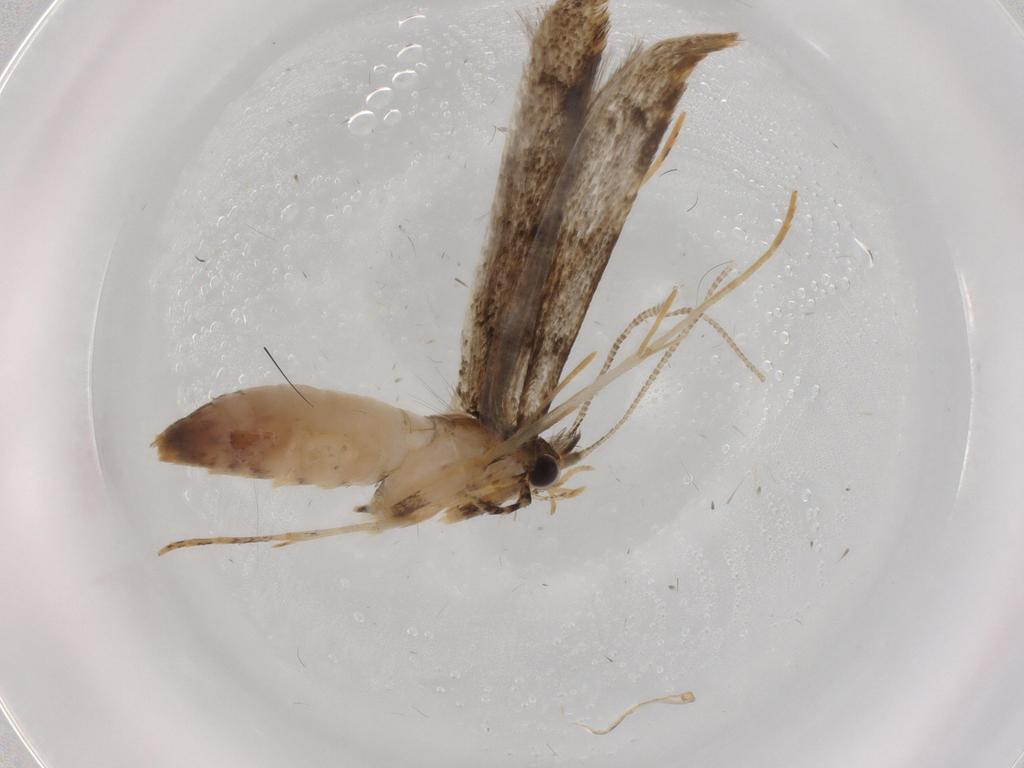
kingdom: Animalia
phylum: Arthropoda
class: Insecta
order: Lepidoptera
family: Tineidae
